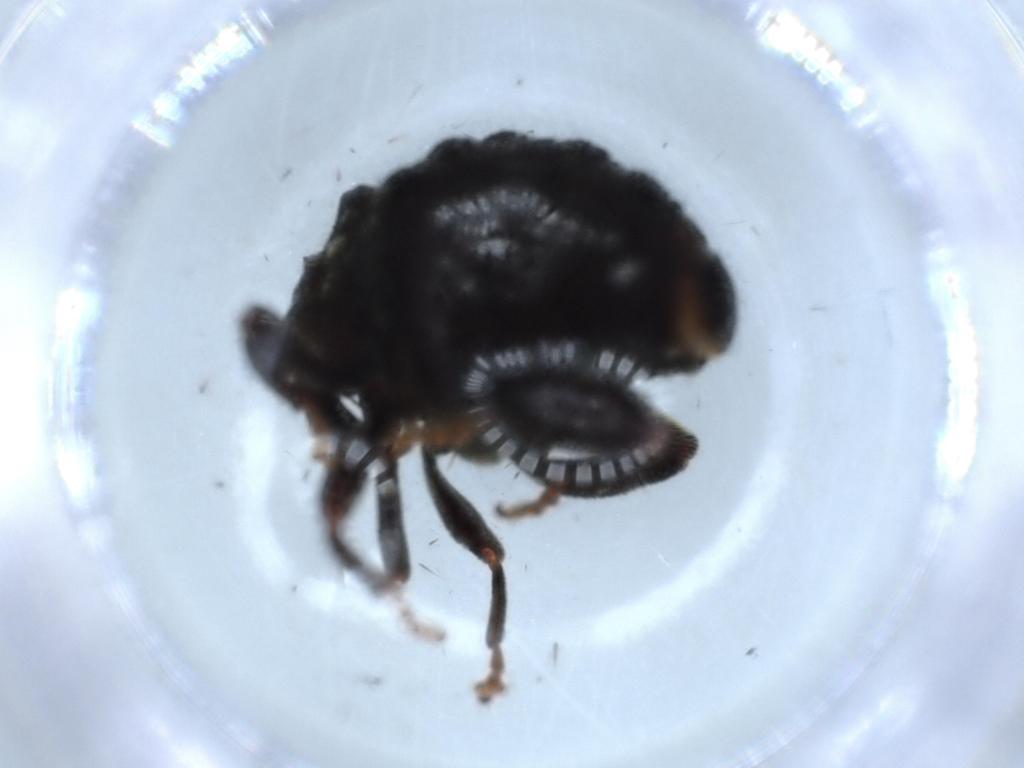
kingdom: Animalia
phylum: Arthropoda
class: Insecta
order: Coleoptera
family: Curculionidae
